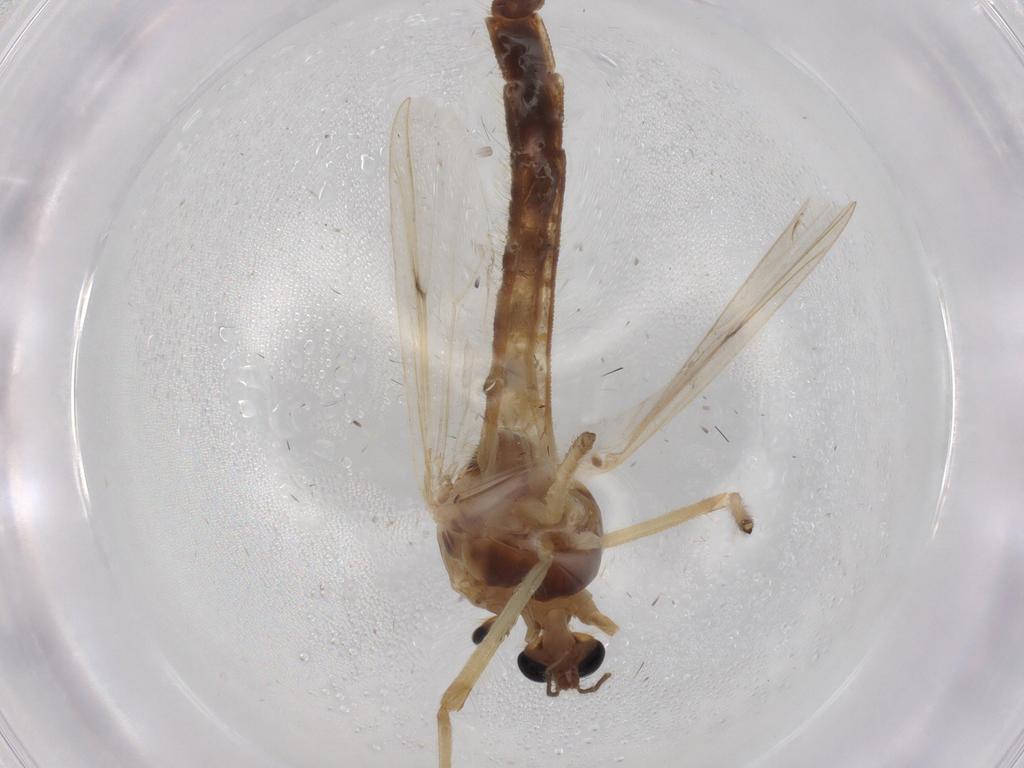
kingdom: Animalia
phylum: Arthropoda
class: Insecta
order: Diptera
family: Chironomidae
